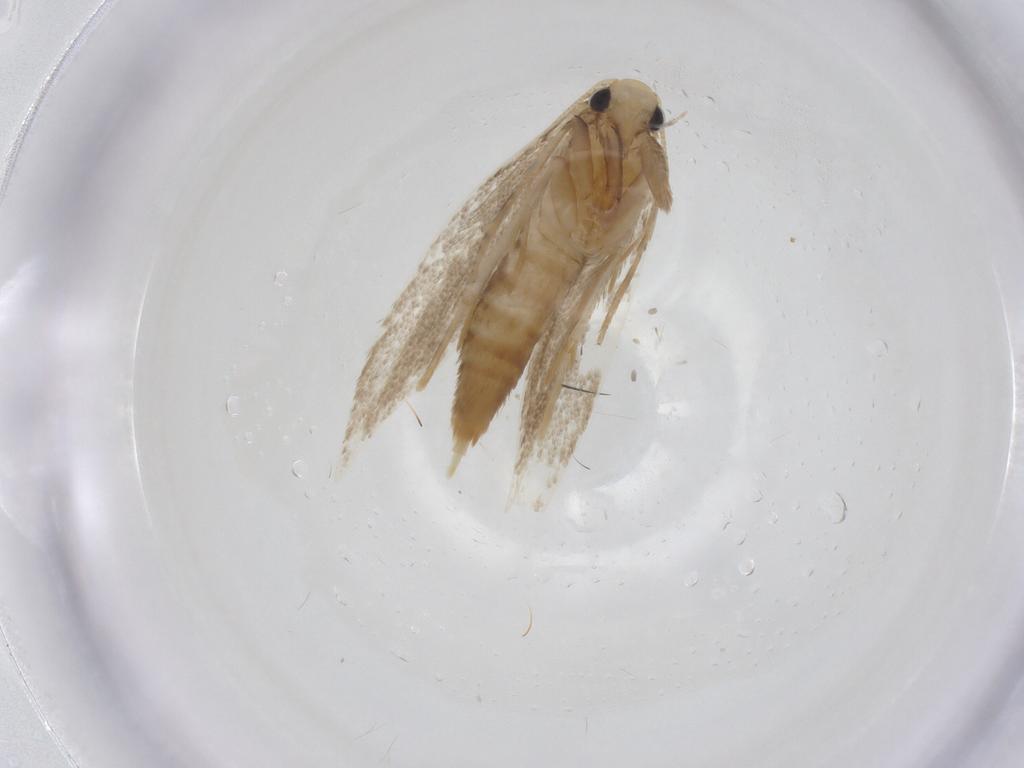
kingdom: Animalia
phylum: Arthropoda
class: Insecta
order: Lepidoptera
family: Tineidae
